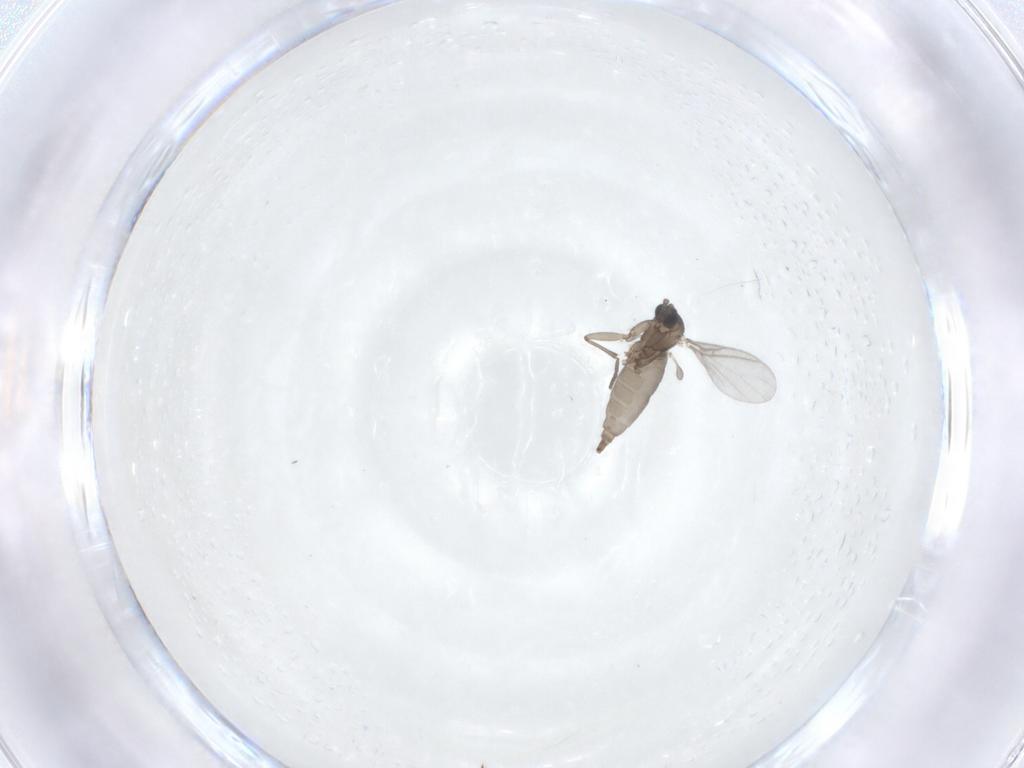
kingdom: Animalia
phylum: Arthropoda
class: Insecta
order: Diptera
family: Sciaridae
